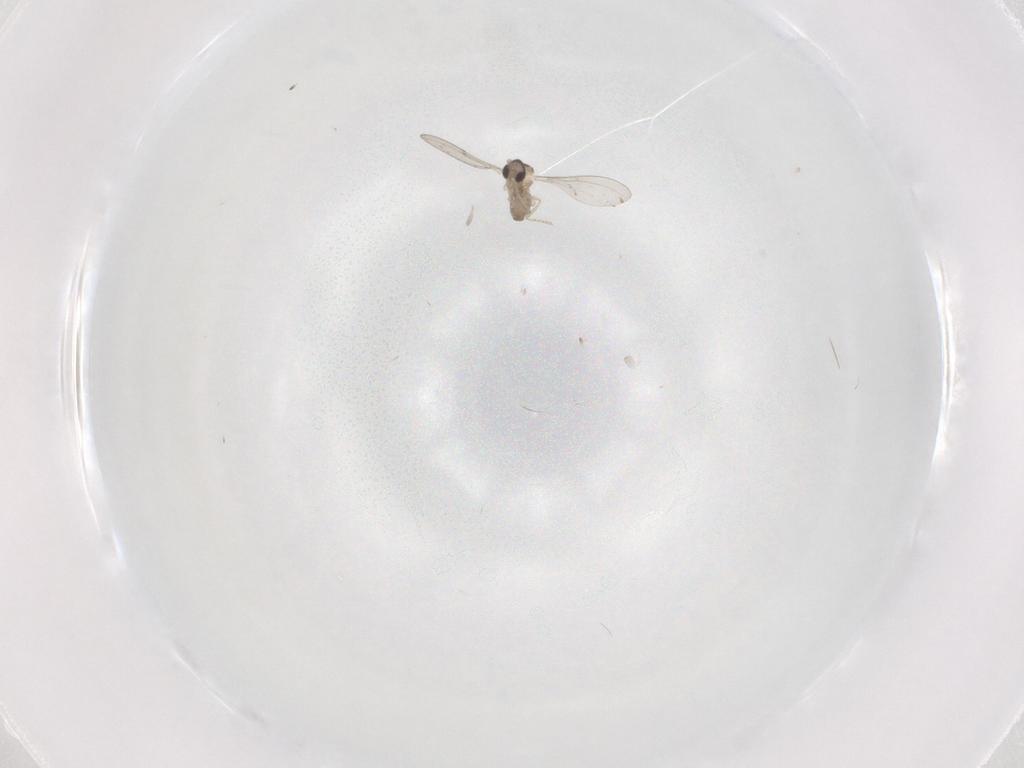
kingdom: Animalia
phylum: Arthropoda
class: Insecta
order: Diptera
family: Cecidomyiidae
